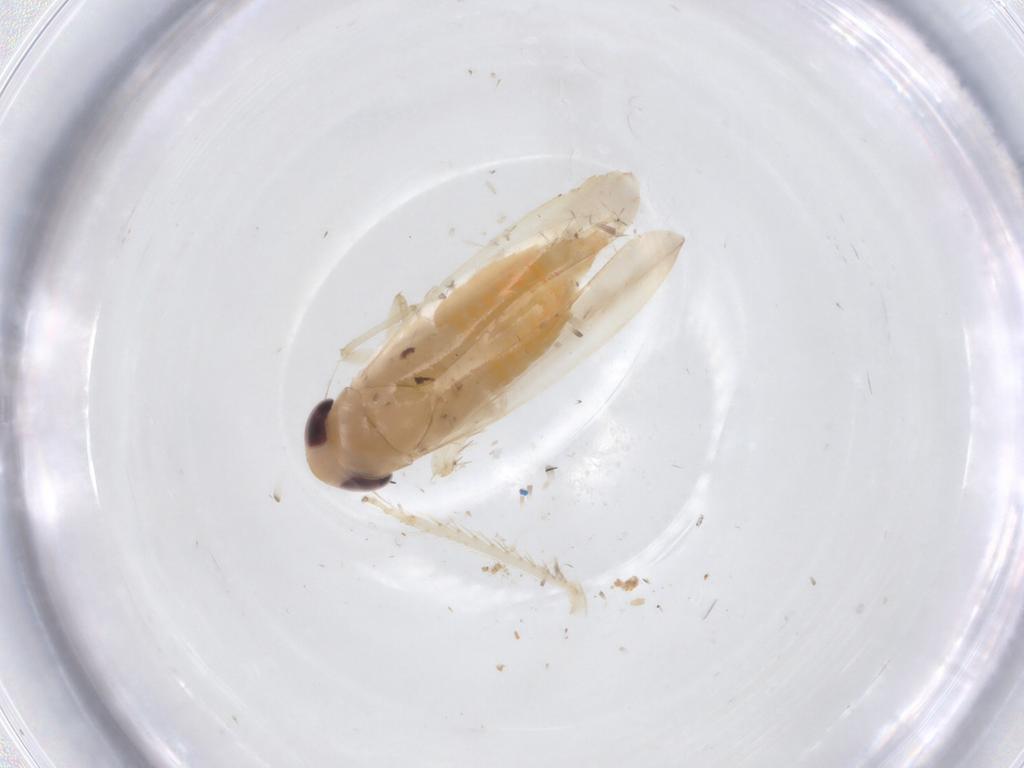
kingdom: Animalia
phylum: Arthropoda
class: Insecta
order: Hemiptera
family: Cicadellidae
